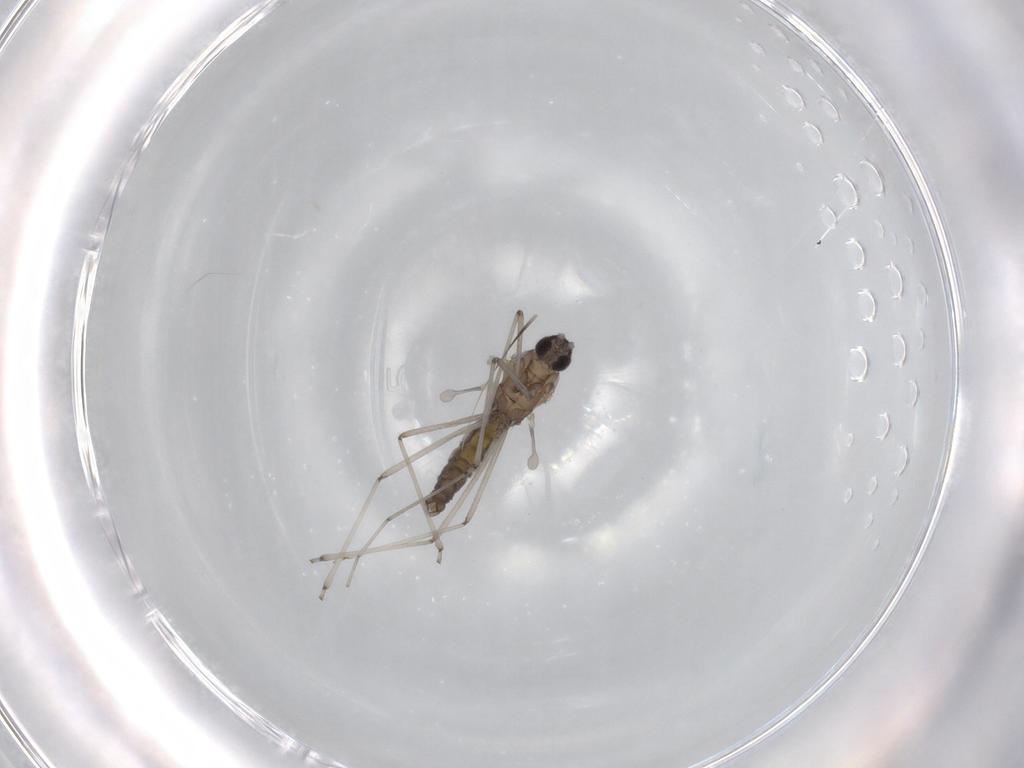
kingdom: Animalia
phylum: Arthropoda
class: Insecta
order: Diptera
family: Cecidomyiidae
